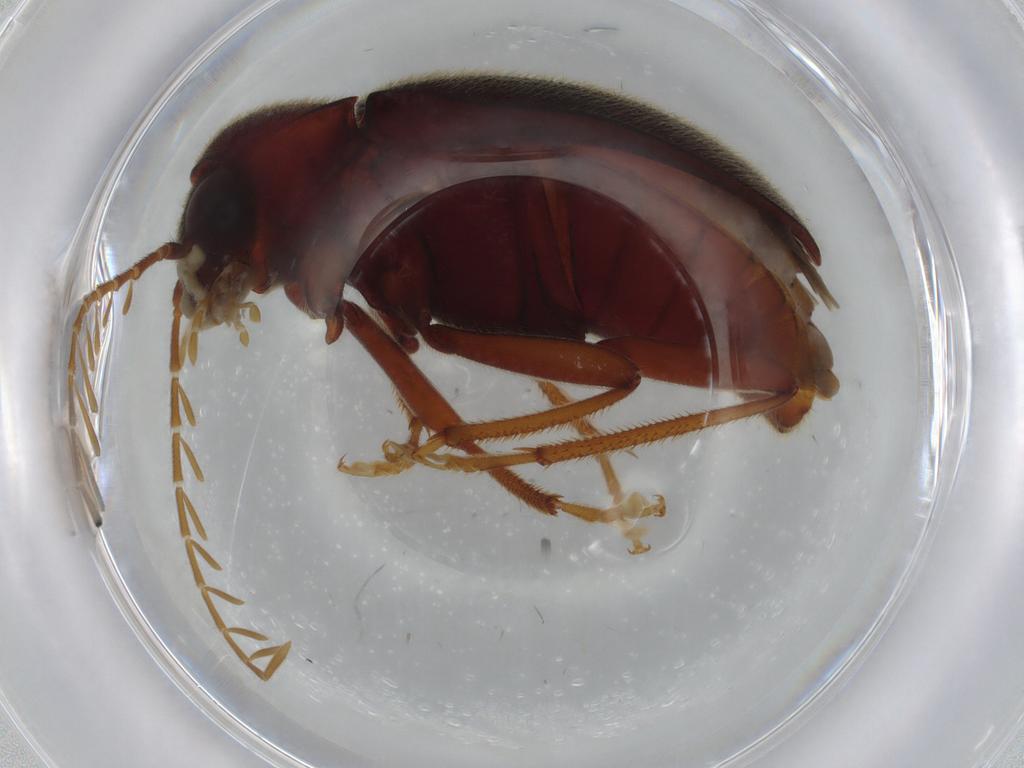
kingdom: Animalia
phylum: Arthropoda
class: Insecta
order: Coleoptera
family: Ptilodactylidae
